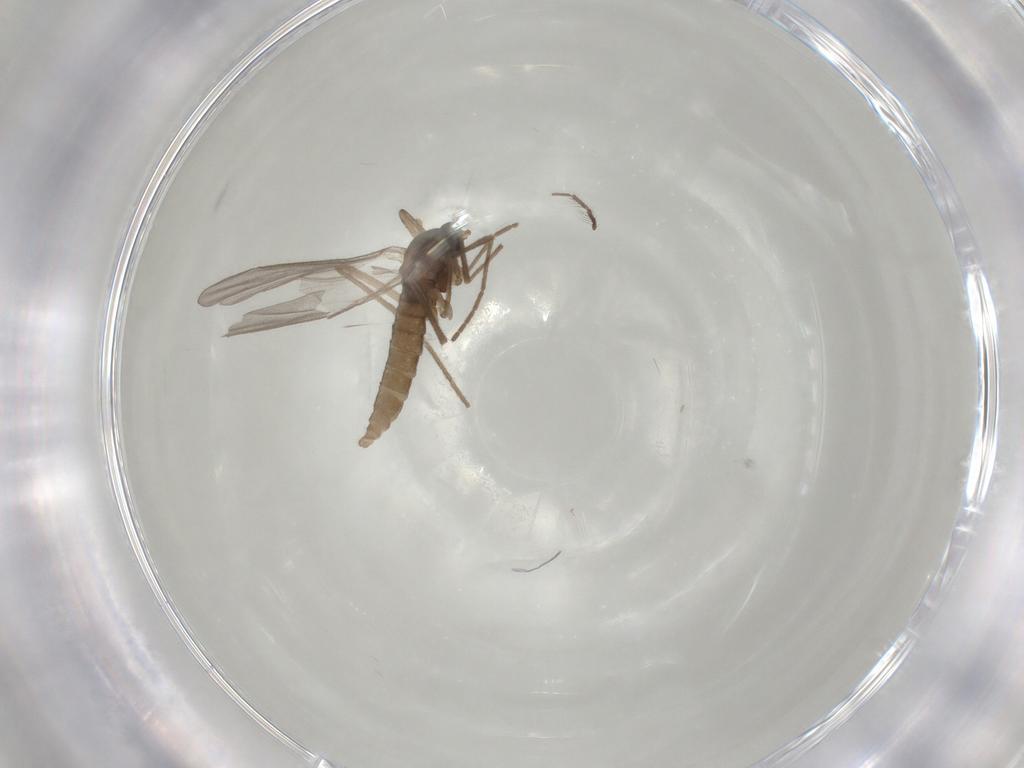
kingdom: Animalia
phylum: Arthropoda
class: Insecta
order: Diptera
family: Cecidomyiidae
